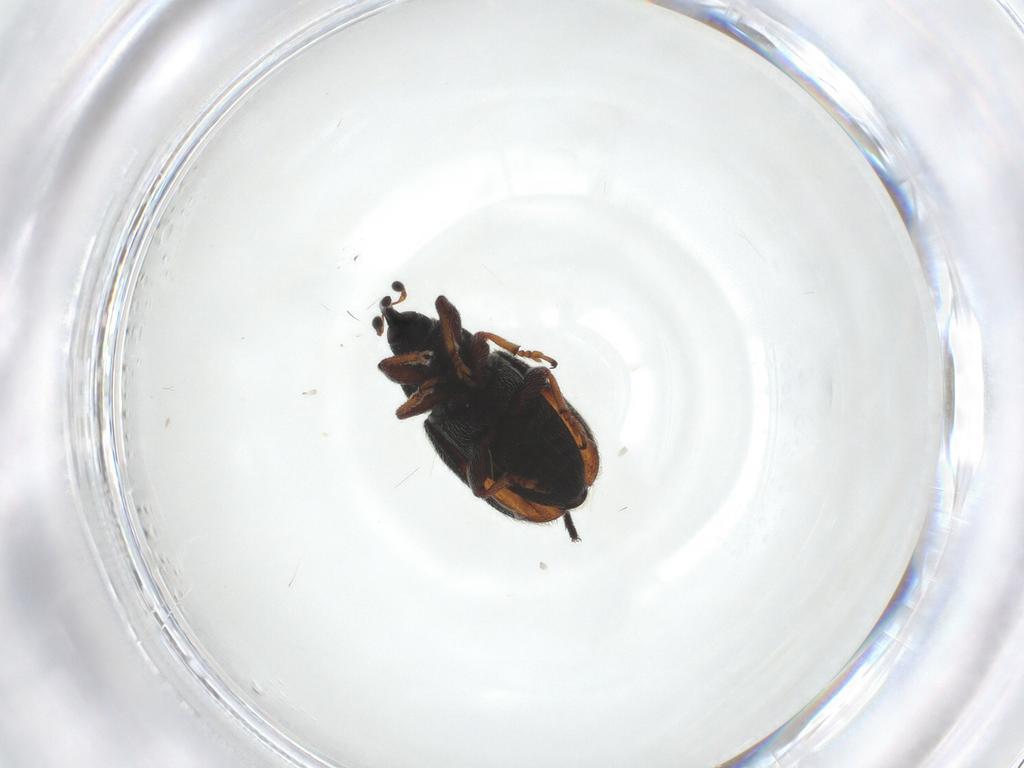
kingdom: Animalia
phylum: Arthropoda
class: Insecta
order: Coleoptera
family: Curculionidae
